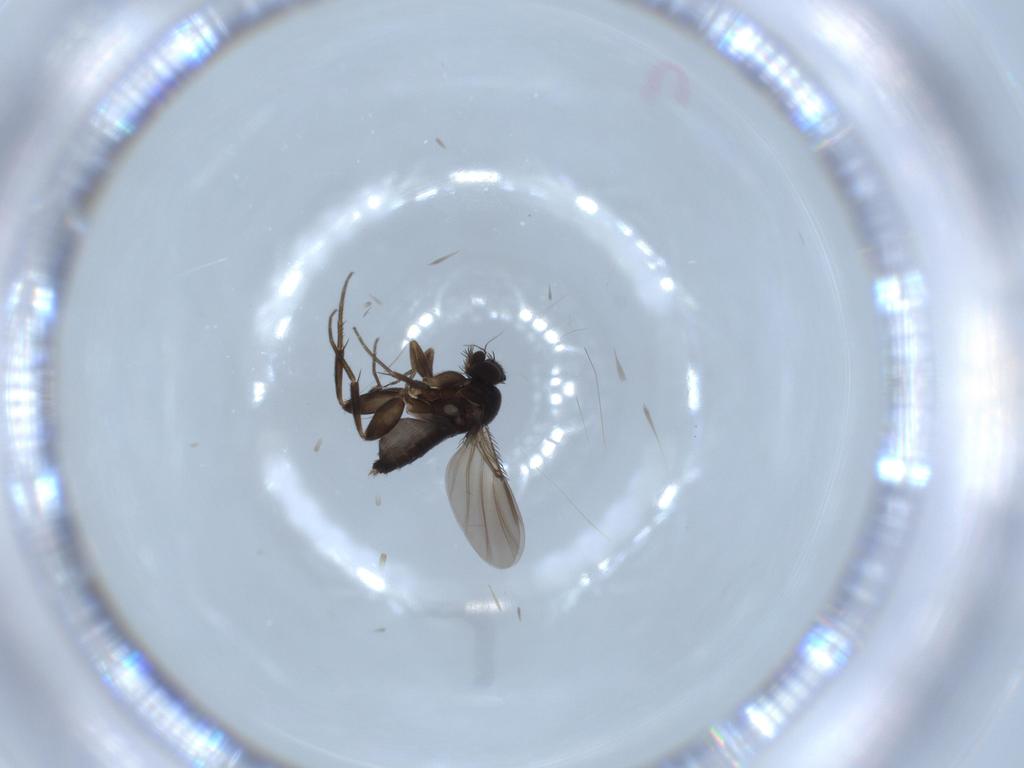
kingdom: Animalia
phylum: Arthropoda
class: Insecta
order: Diptera
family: Phoridae
